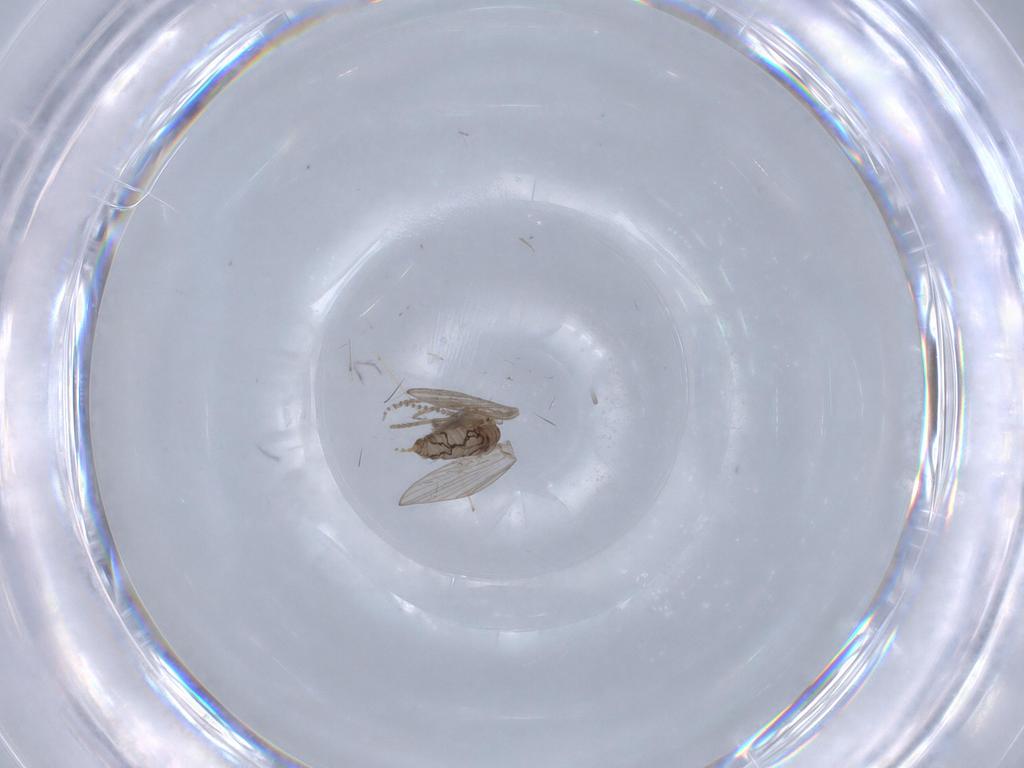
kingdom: Animalia
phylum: Arthropoda
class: Insecta
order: Diptera
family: Psychodidae
